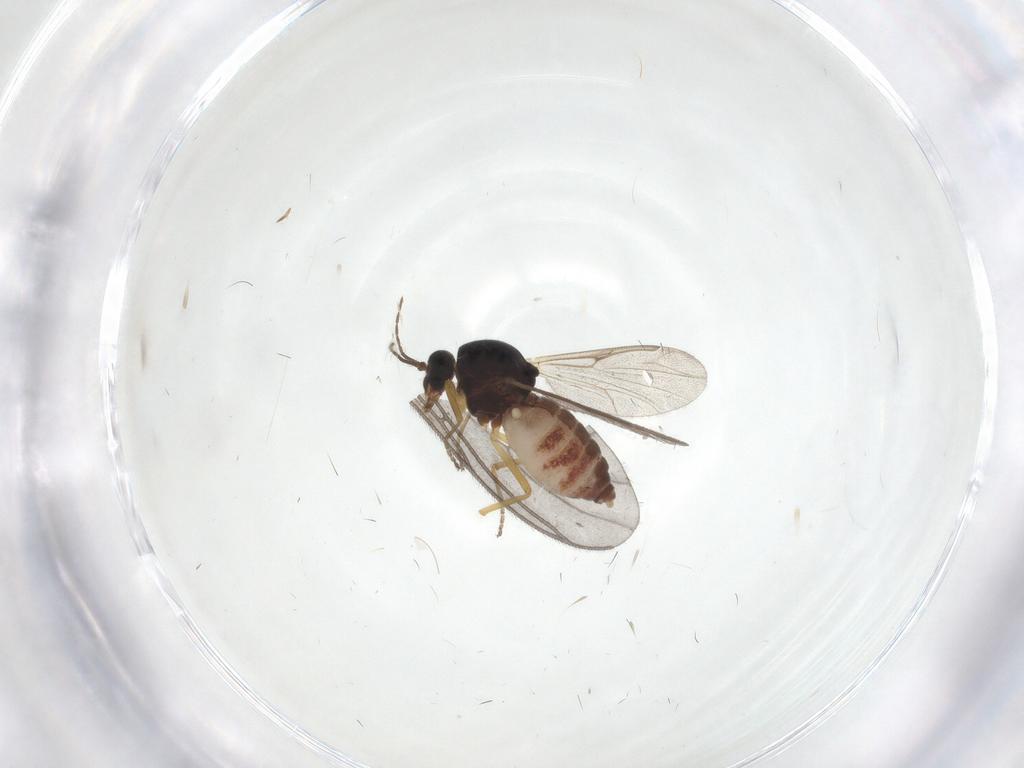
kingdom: Animalia
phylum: Arthropoda
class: Insecta
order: Diptera
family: Ceratopogonidae
